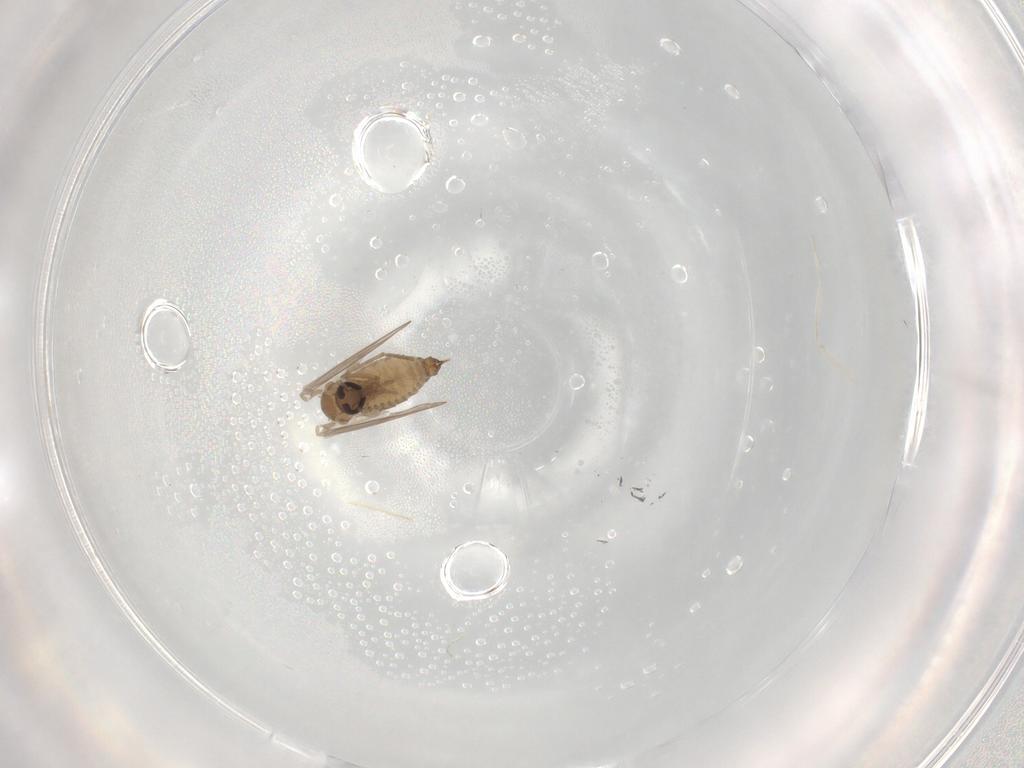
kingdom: Animalia
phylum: Arthropoda
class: Insecta
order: Diptera
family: Psychodidae
